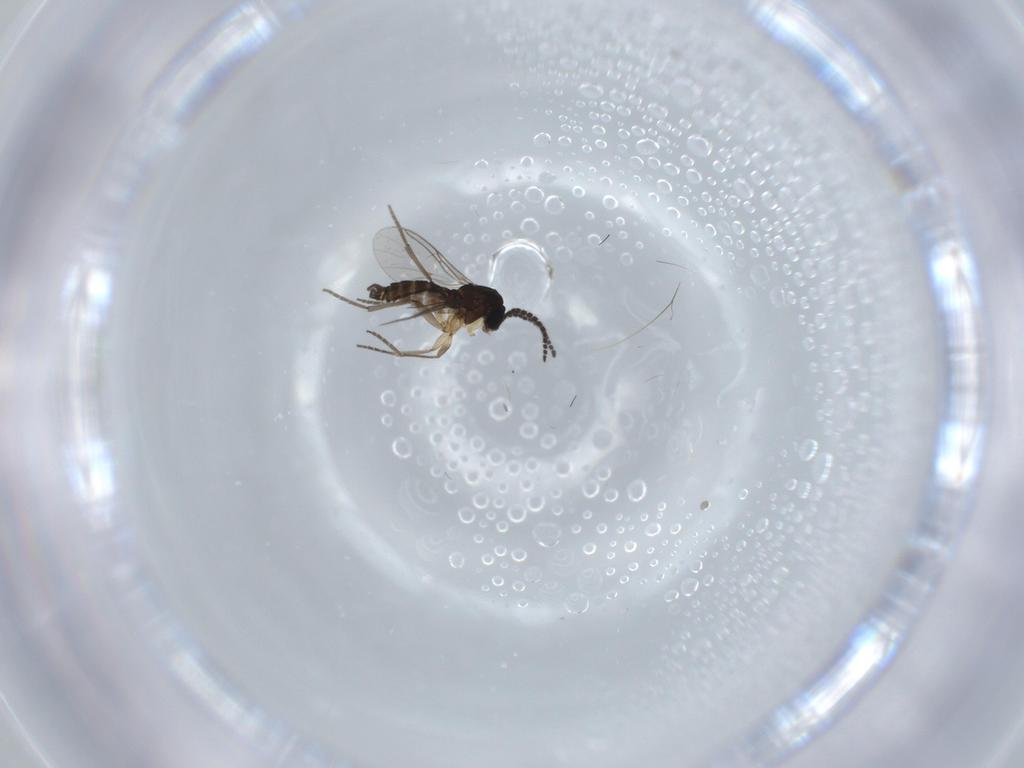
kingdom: Animalia
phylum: Arthropoda
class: Insecta
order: Diptera
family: Sciaridae
